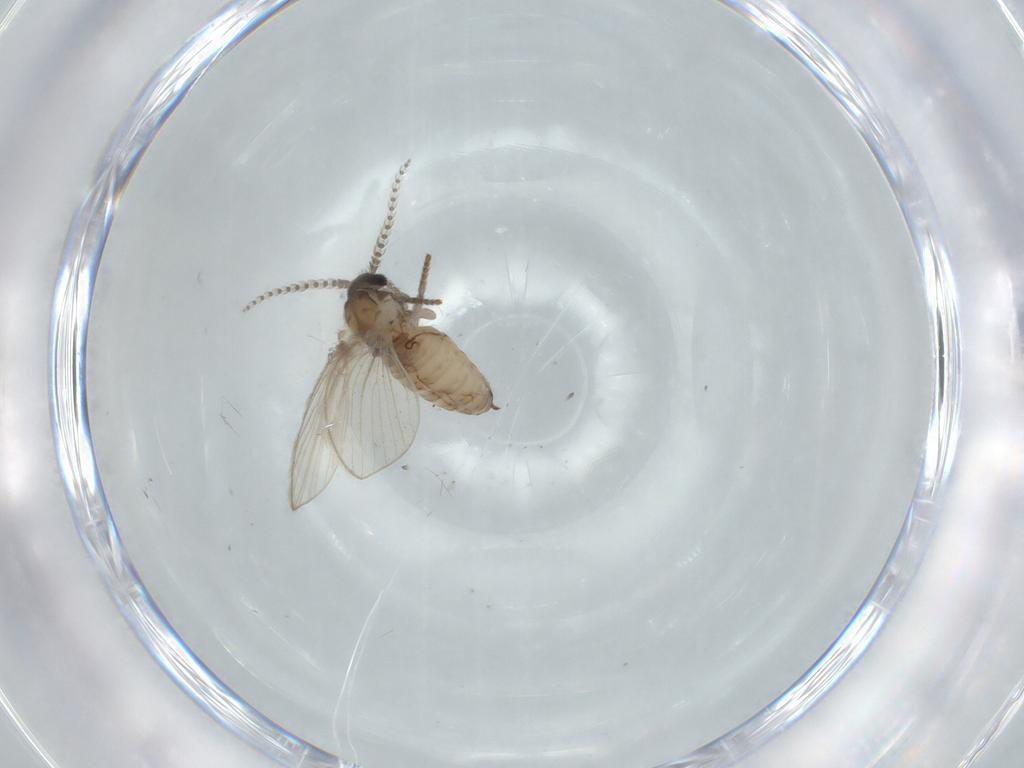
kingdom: Animalia
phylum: Arthropoda
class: Insecta
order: Diptera
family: Psychodidae
